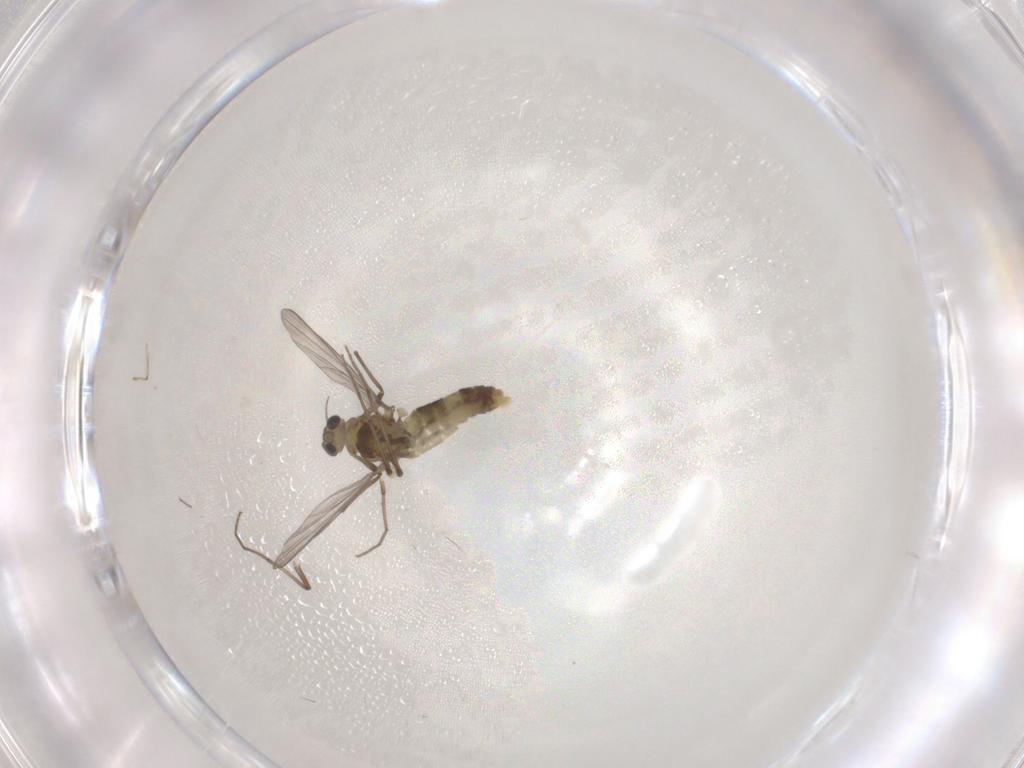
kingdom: Animalia
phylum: Arthropoda
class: Insecta
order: Diptera
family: Chironomidae
